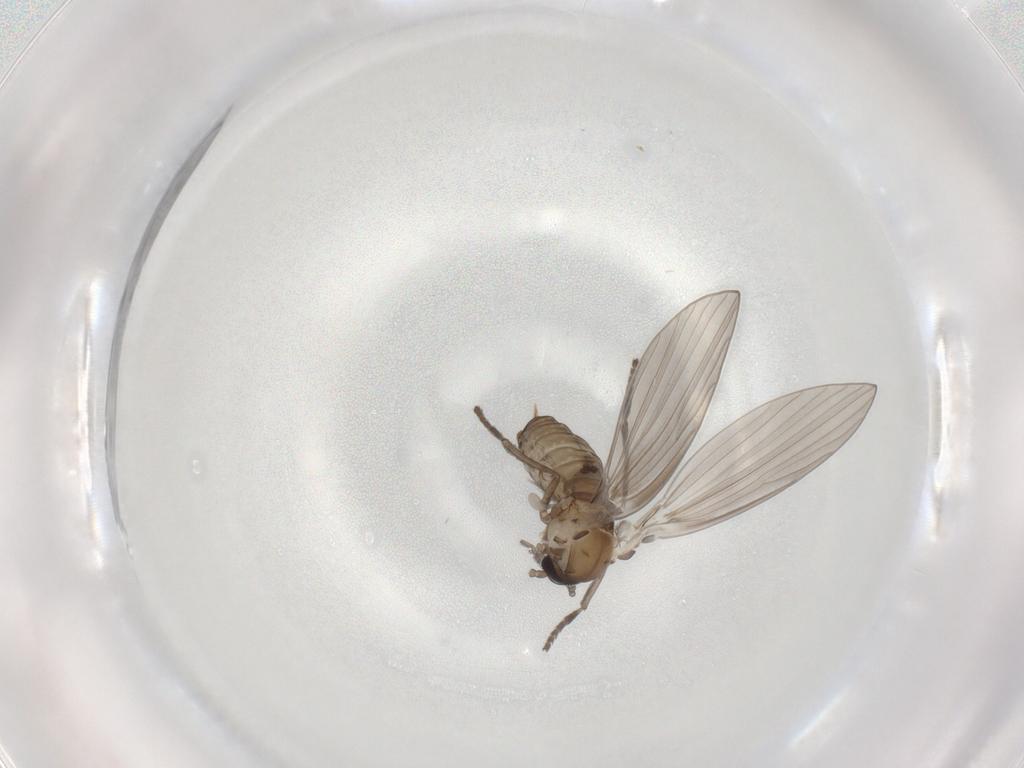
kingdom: Animalia
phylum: Arthropoda
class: Insecta
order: Diptera
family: Psychodidae
